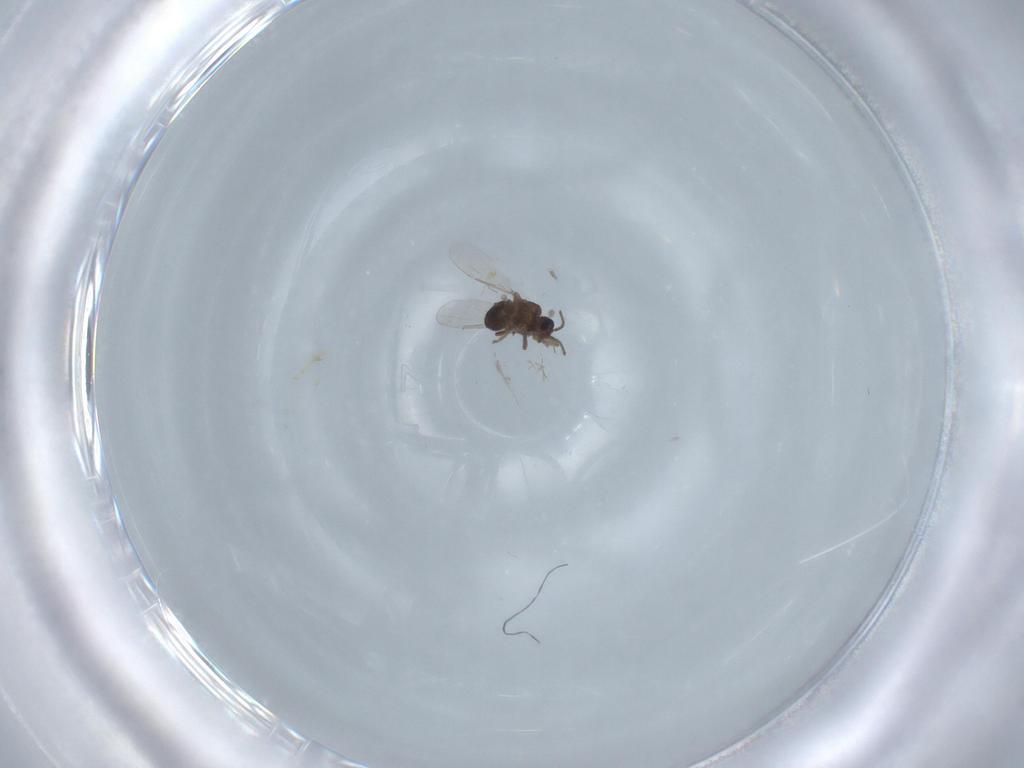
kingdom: Animalia
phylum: Arthropoda
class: Insecta
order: Diptera
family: Ceratopogonidae
